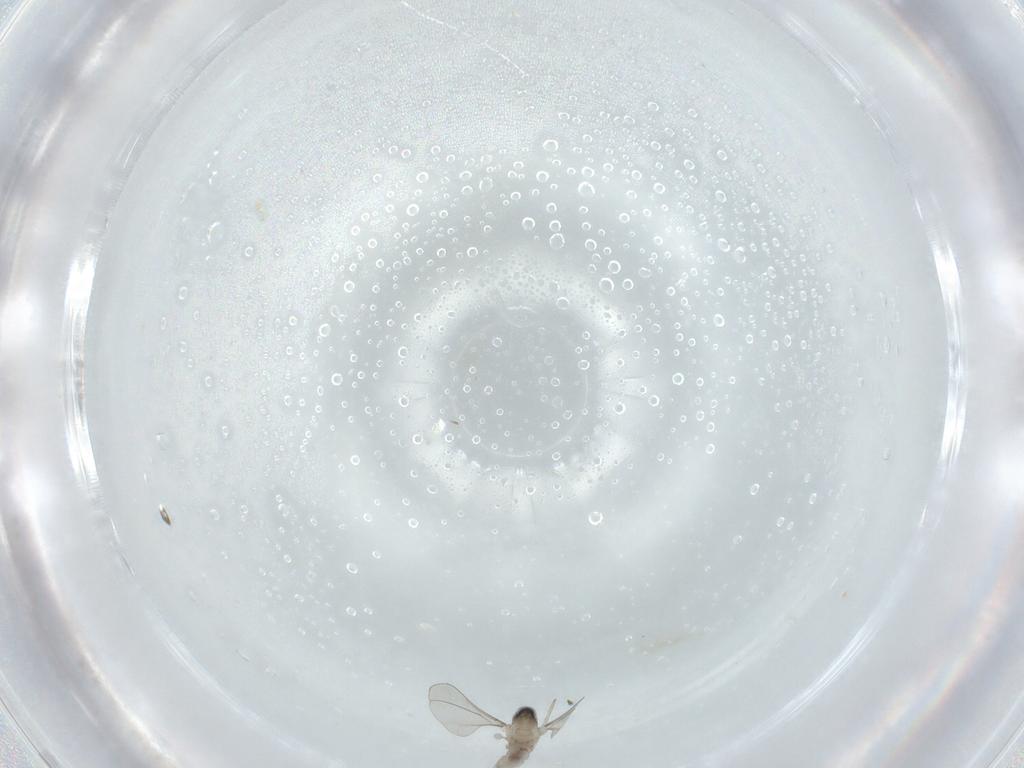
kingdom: Animalia
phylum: Arthropoda
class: Insecta
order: Diptera
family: Cecidomyiidae
